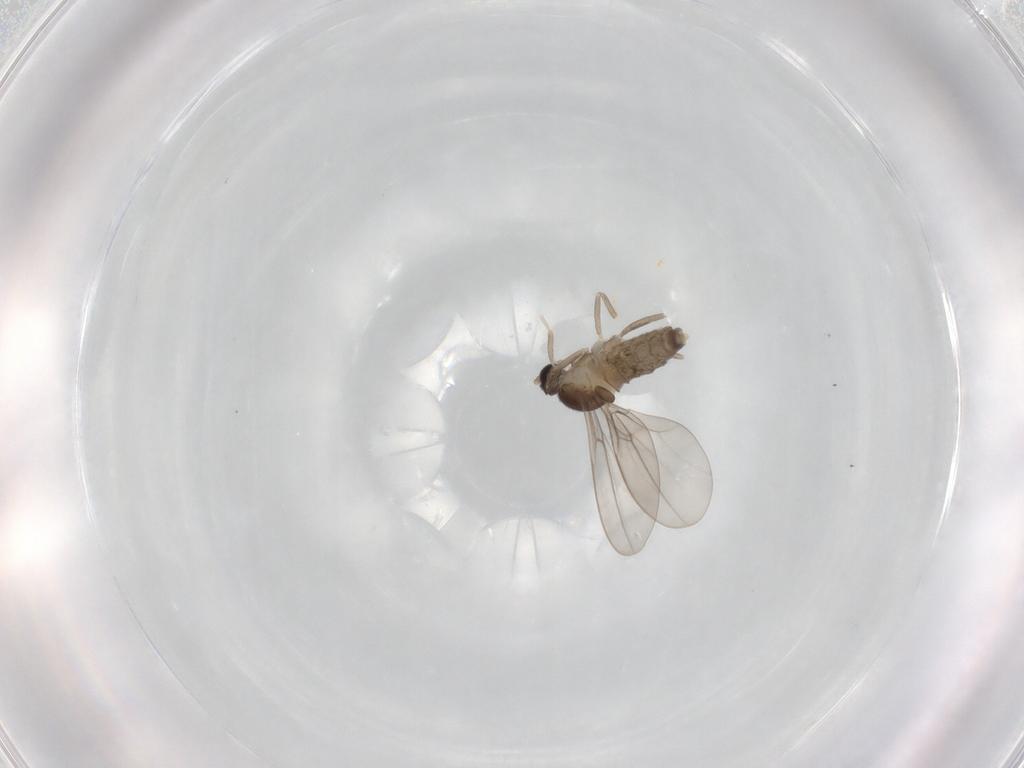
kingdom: Animalia
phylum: Arthropoda
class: Insecta
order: Diptera
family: Cecidomyiidae
